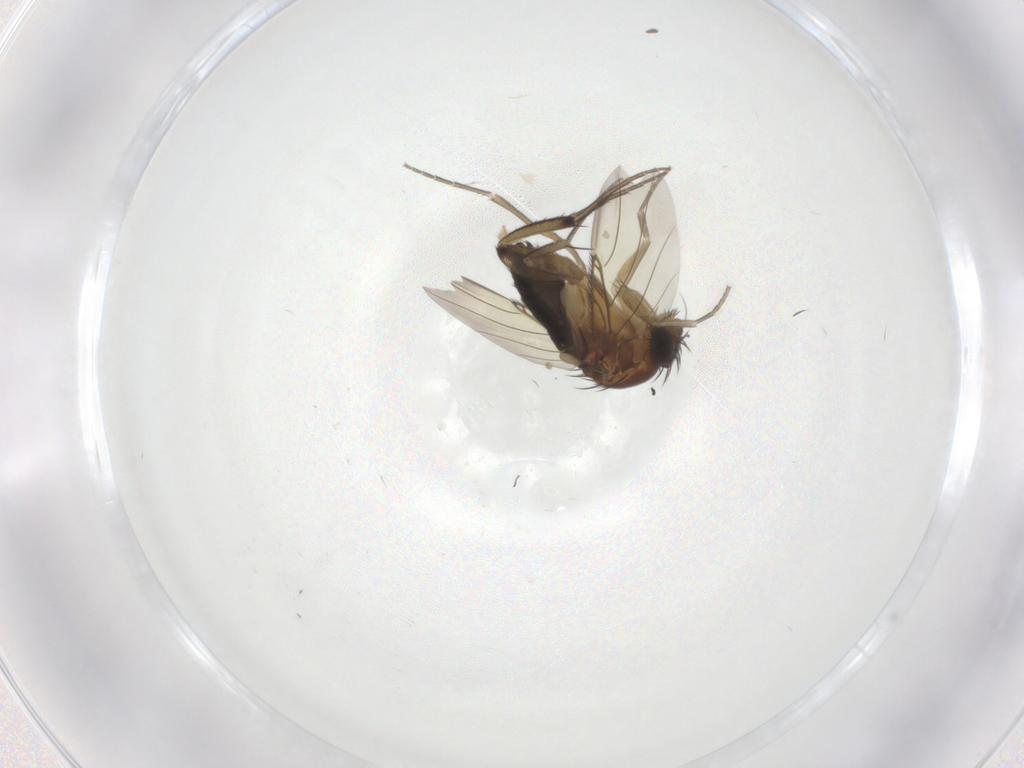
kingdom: Animalia
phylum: Arthropoda
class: Insecta
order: Diptera
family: Phoridae
